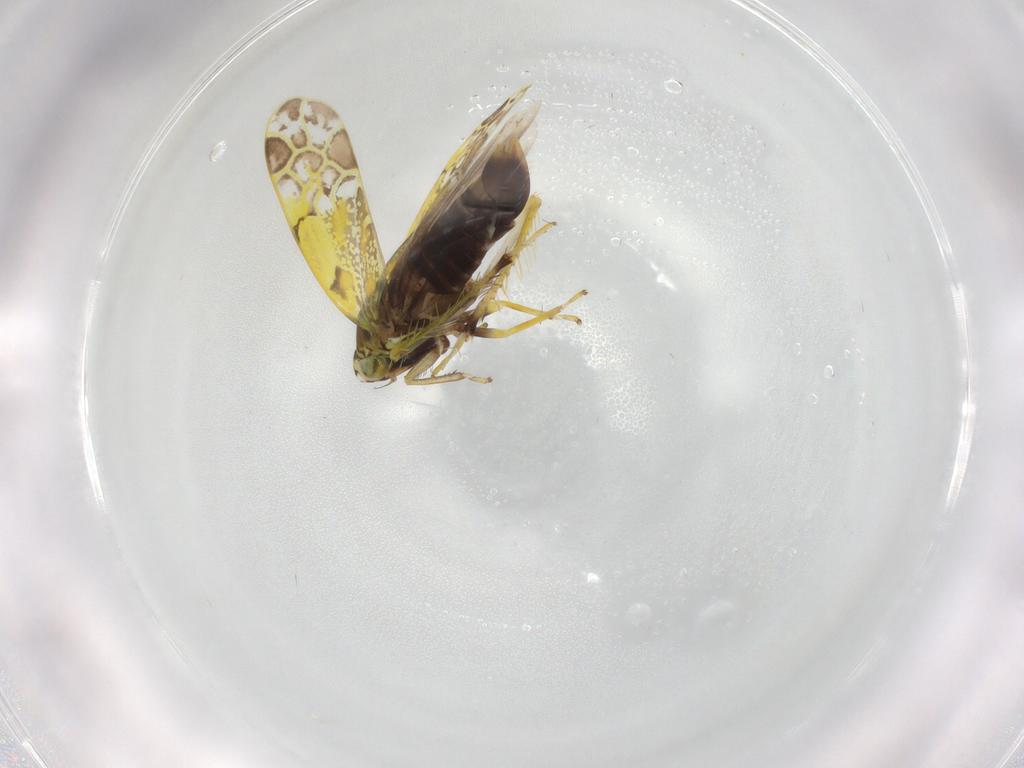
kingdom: Animalia
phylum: Arthropoda
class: Insecta
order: Hemiptera
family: Cicadellidae
